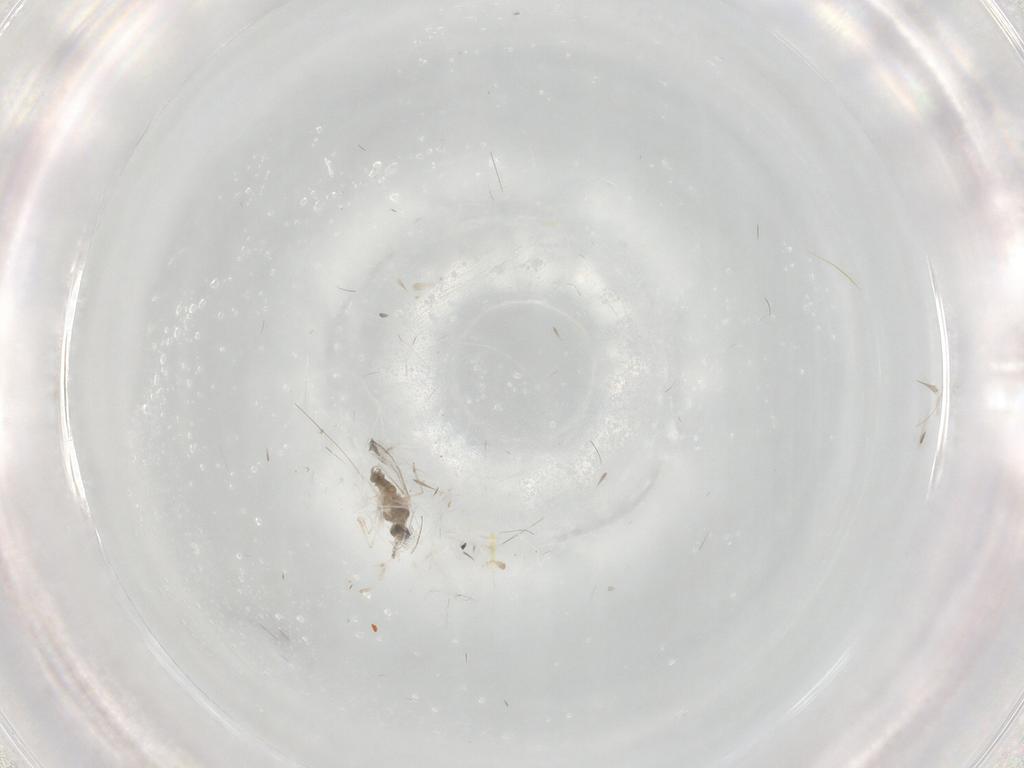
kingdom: Animalia
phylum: Arthropoda
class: Insecta
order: Diptera
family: Cecidomyiidae
